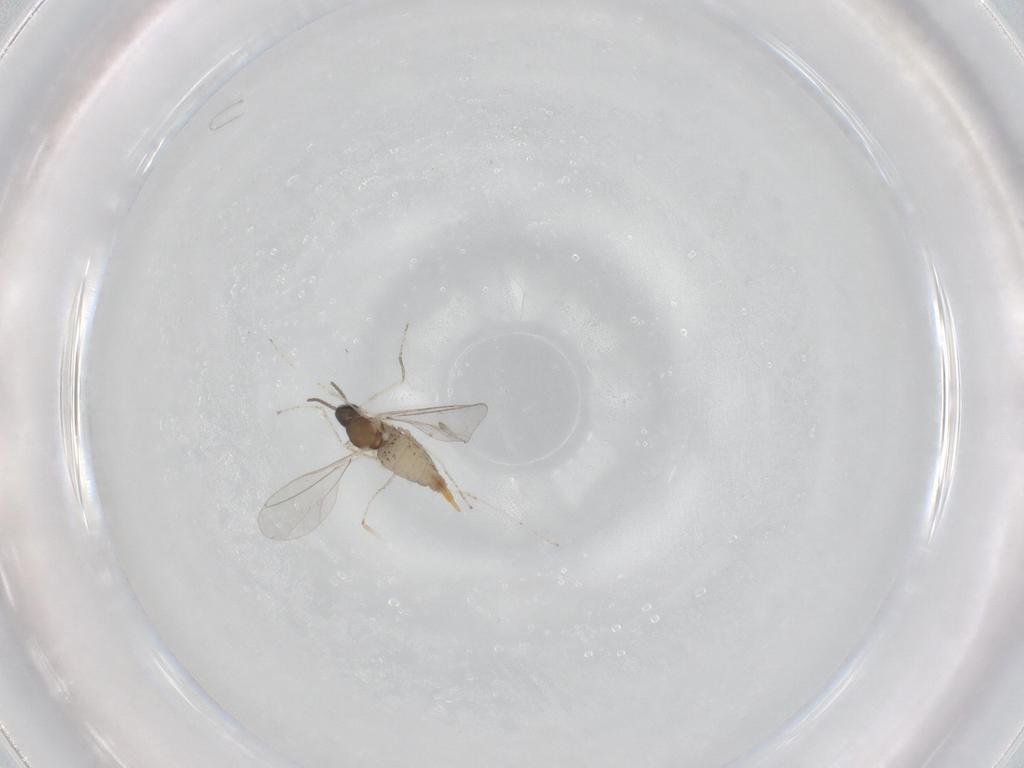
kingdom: Animalia
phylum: Arthropoda
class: Insecta
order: Diptera
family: Cecidomyiidae
